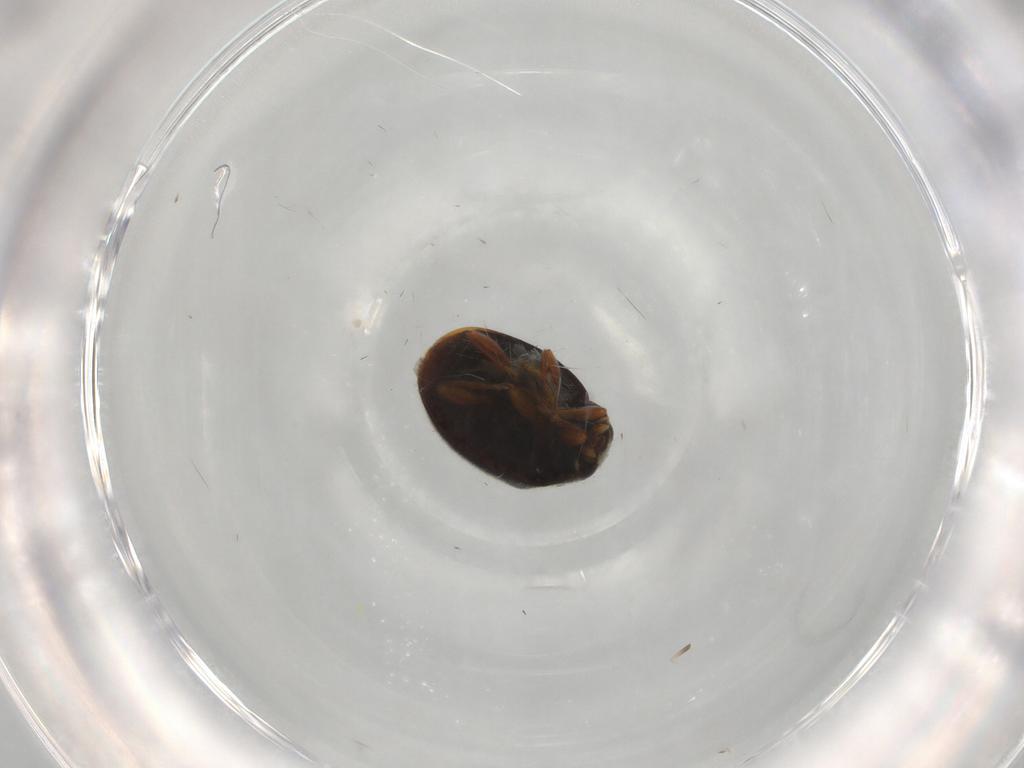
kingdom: Animalia
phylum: Arthropoda
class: Insecta
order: Coleoptera
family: Coccinellidae
